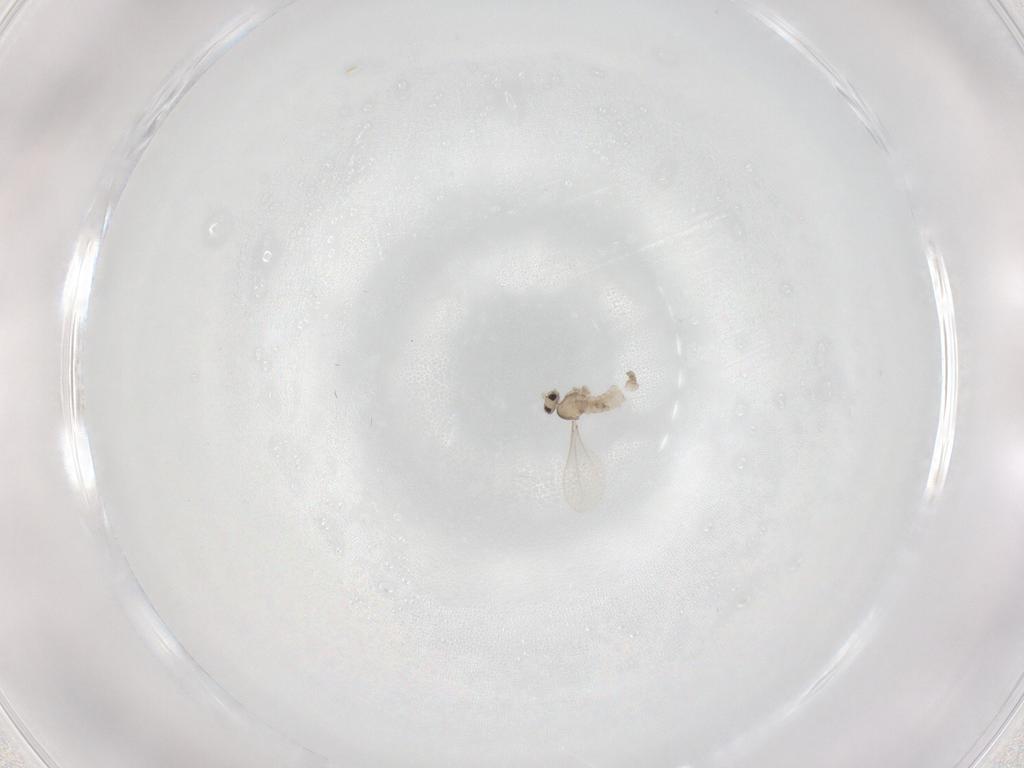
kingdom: Animalia
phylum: Arthropoda
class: Insecta
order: Diptera
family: Cecidomyiidae
